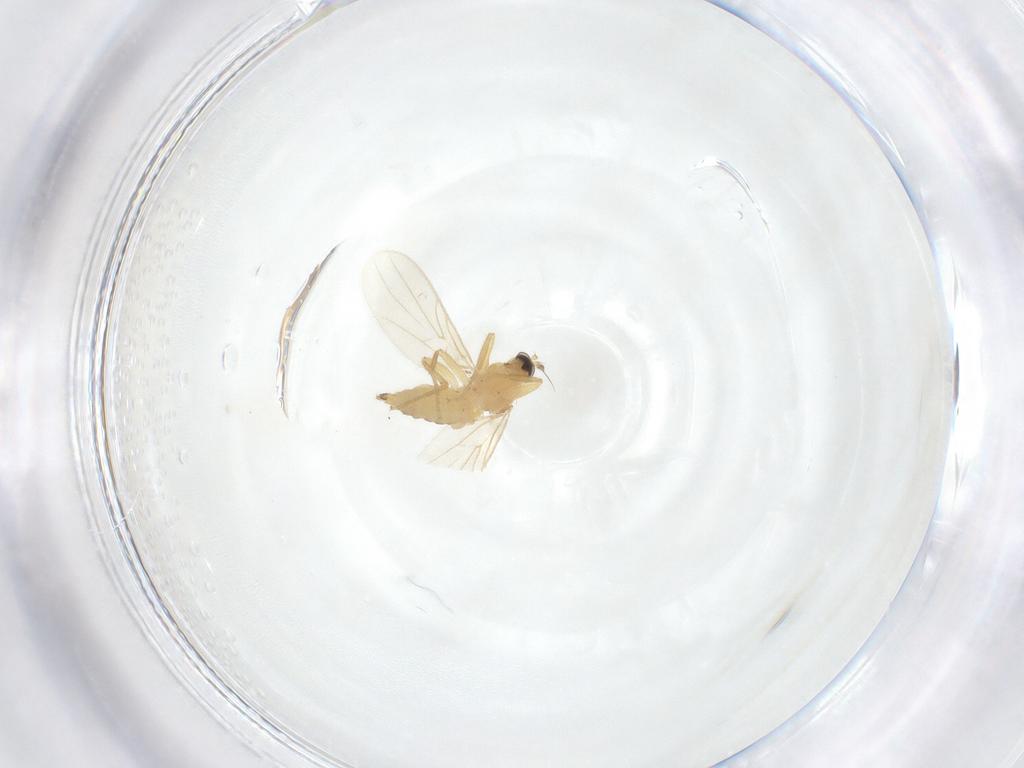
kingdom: Animalia
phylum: Arthropoda
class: Insecta
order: Diptera
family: Hybotidae
